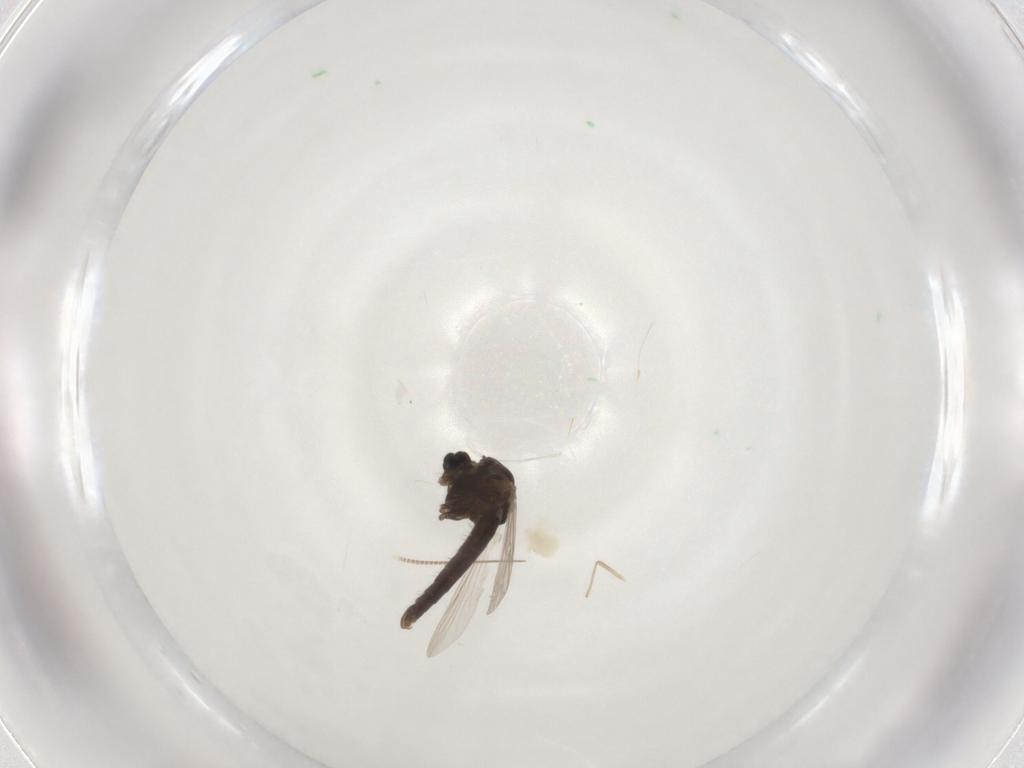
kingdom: Animalia
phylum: Arthropoda
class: Insecta
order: Diptera
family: Chironomidae
